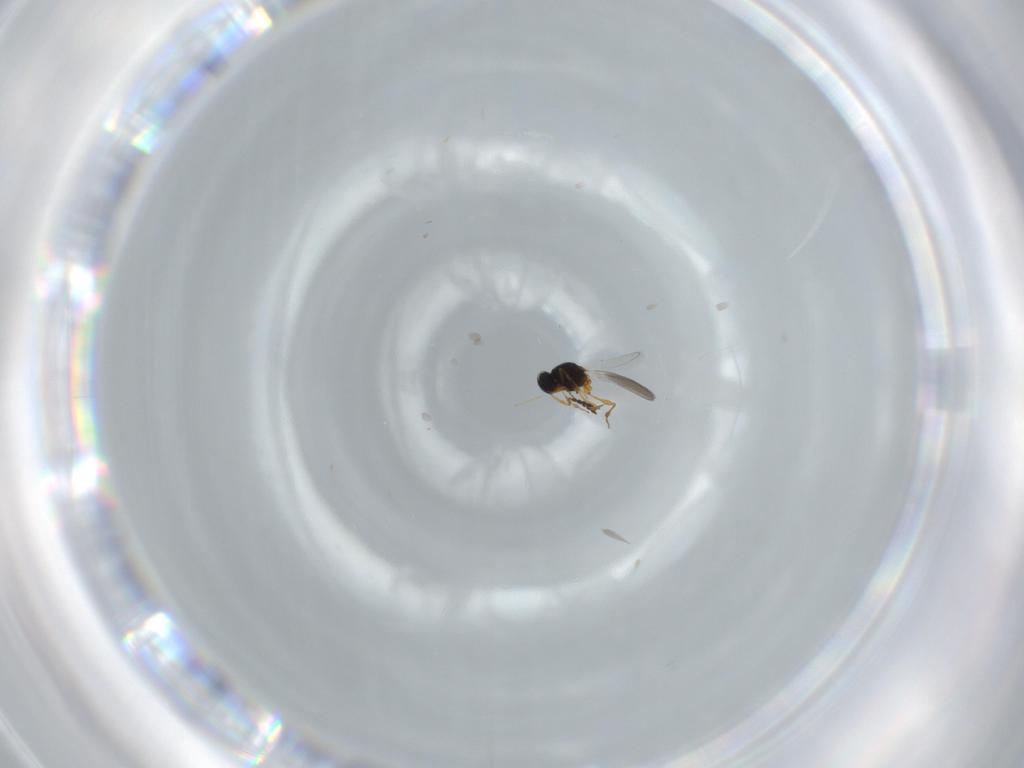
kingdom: Animalia
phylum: Arthropoda
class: Insecta
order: Hymenoptera
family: Platygastridae
